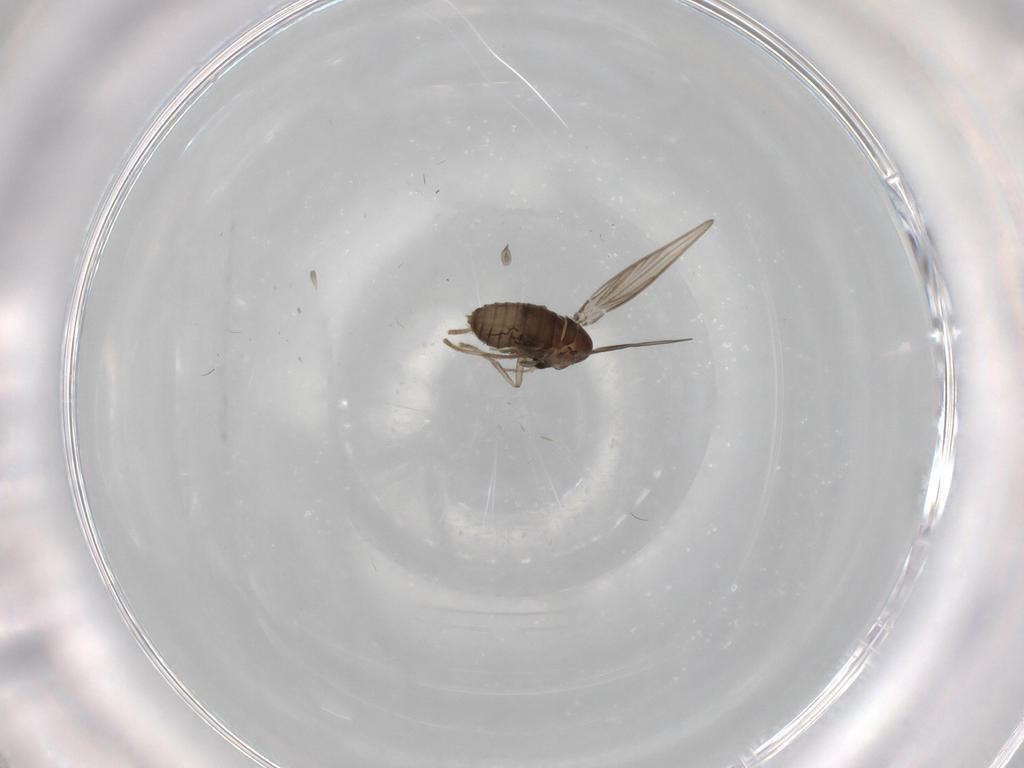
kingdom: Animalia
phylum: Arthropoda
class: Insecta
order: Diptera
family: Psychodidae
